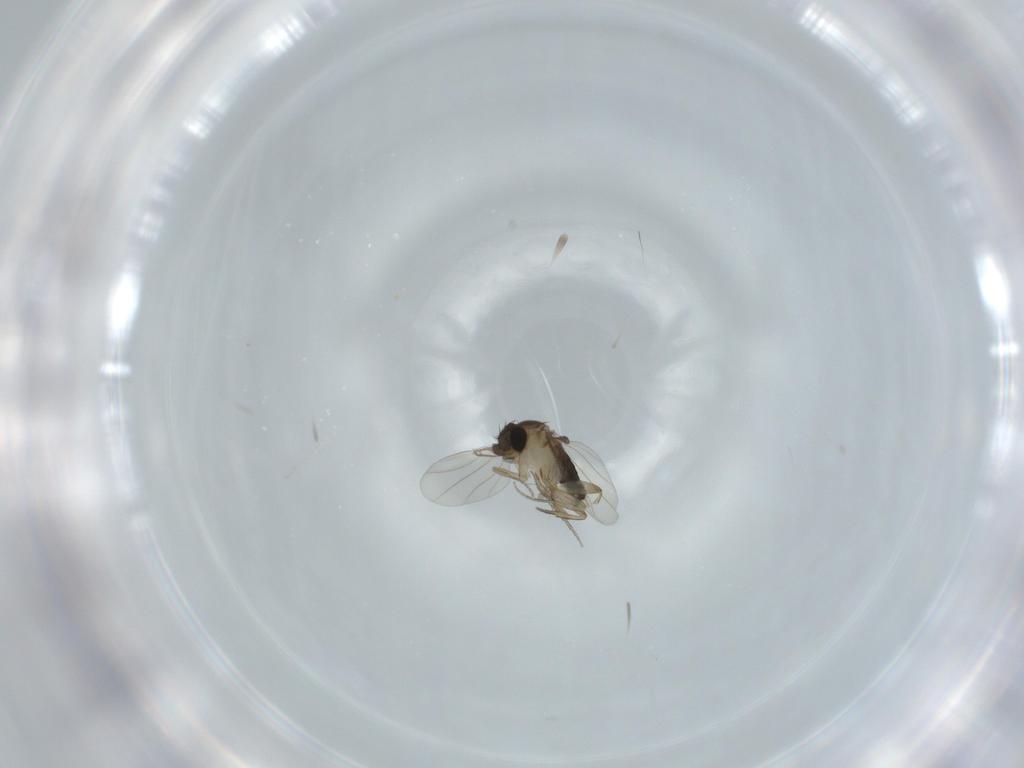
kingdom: Animalia
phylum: Arthropoda
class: Insecta
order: Diptera
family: Phoridae
